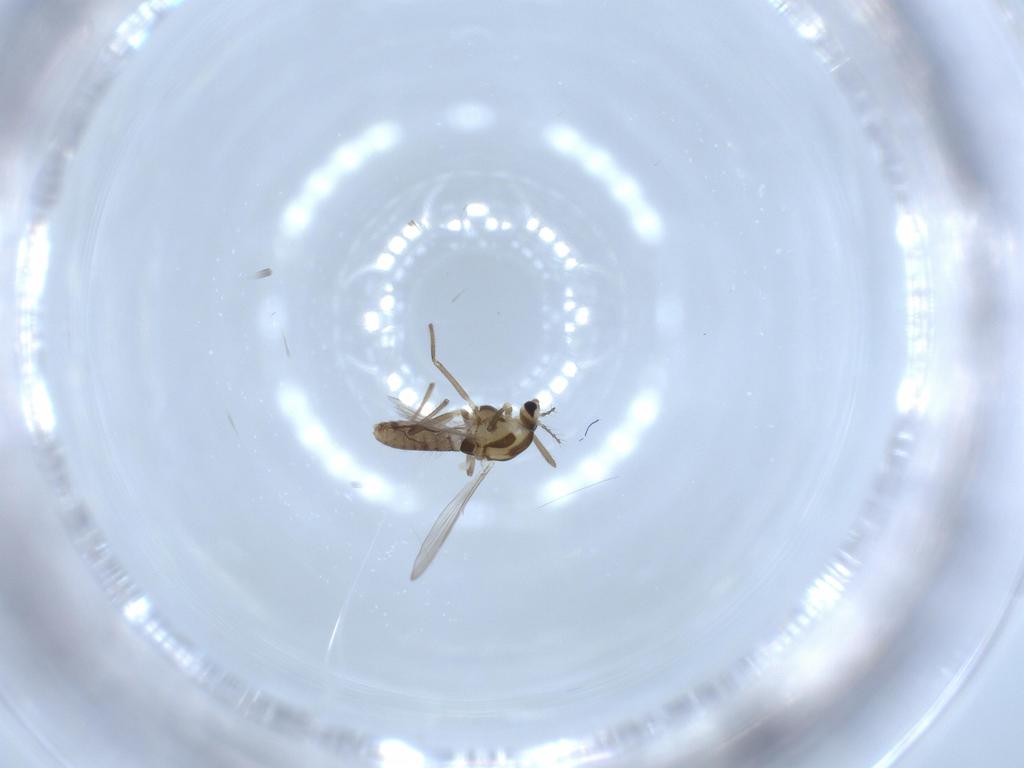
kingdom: Animalia
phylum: Arthropoda
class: Insecta
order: Diptera
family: Chironomidae
